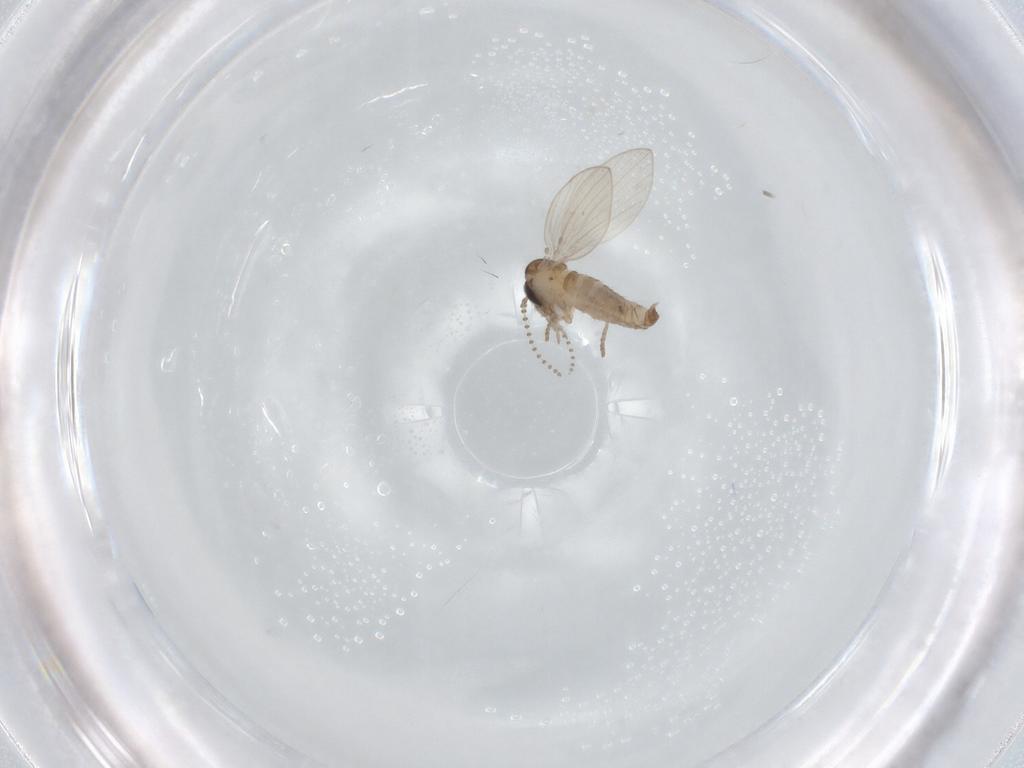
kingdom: Animalia
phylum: Arthropoda
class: Insecta
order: Diptera
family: Psychodidae
